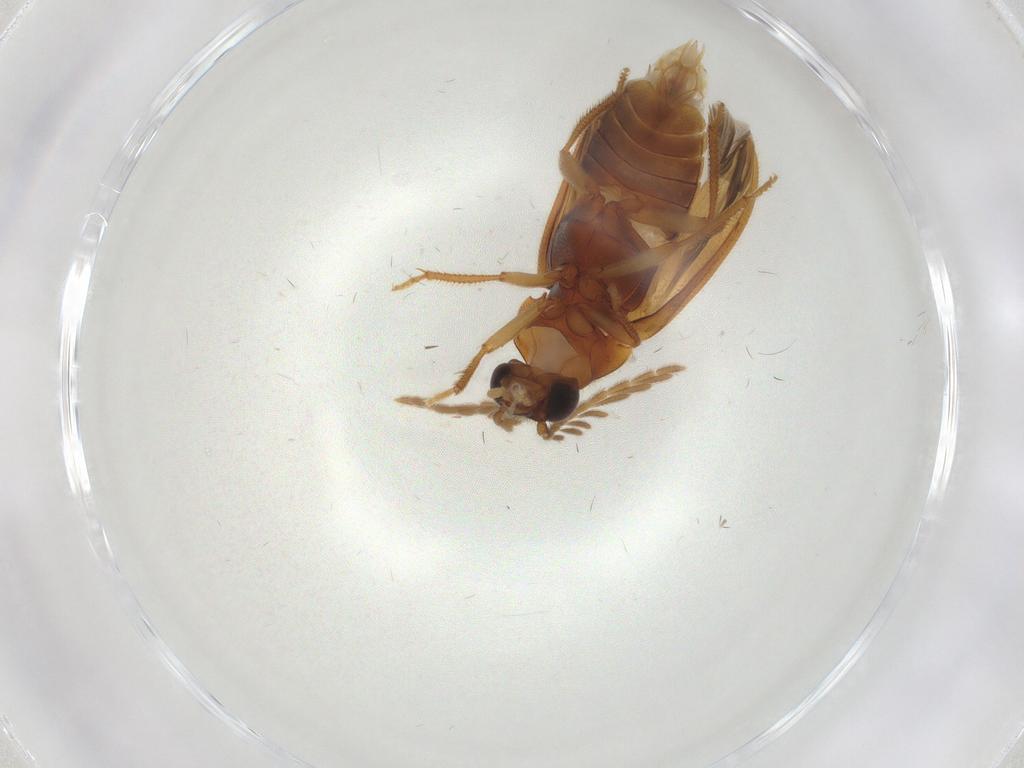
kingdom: Animalia
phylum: Arthropoda
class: Insecta
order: Coleoptera
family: Ptilodactylidae
